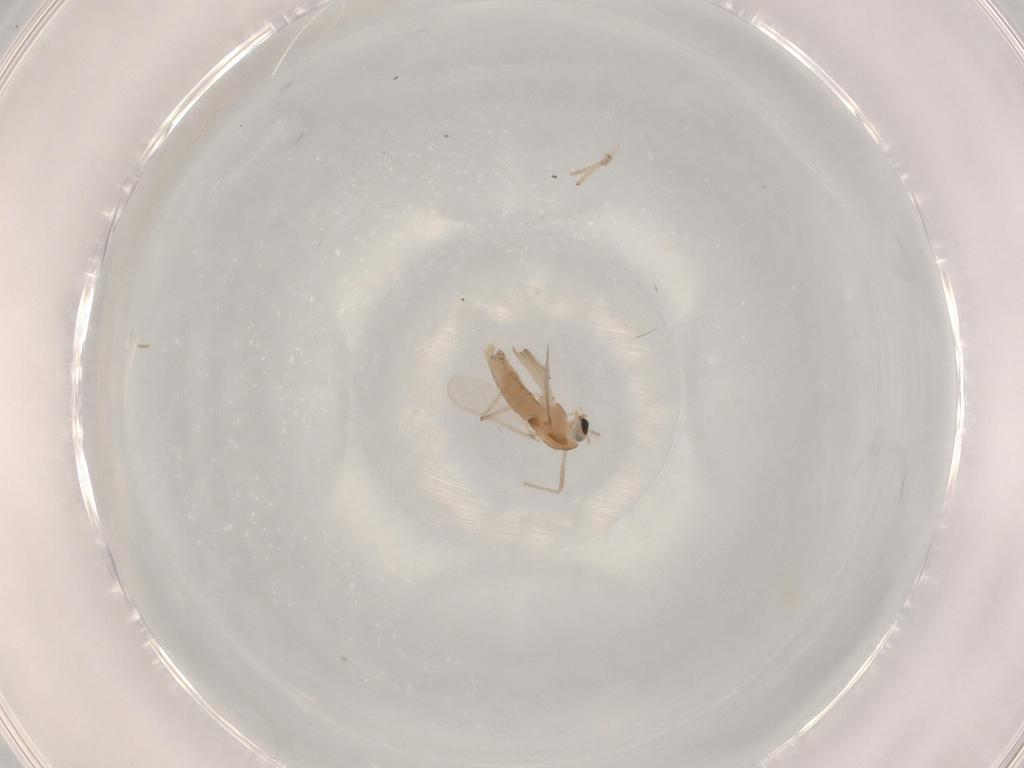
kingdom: Animalia
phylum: Arthropoda
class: Insecta
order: Diptera
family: Chironomidae
